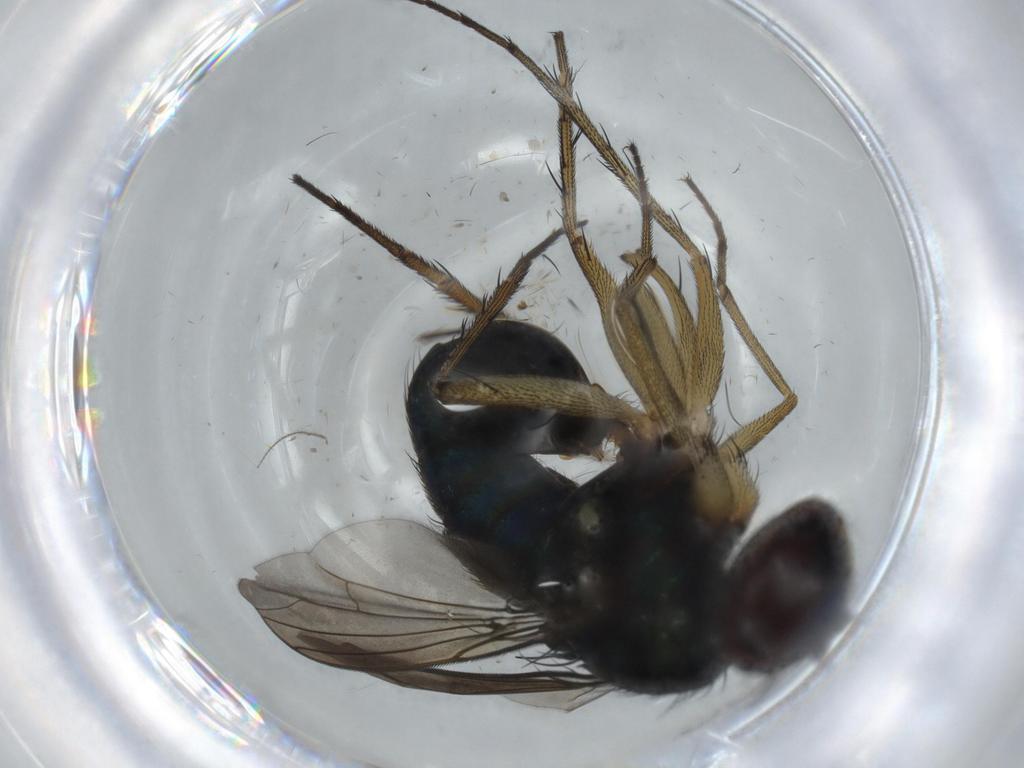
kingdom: Animalia
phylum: Arthropoda
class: Insecta
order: Diptera
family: Dolichopodidae
